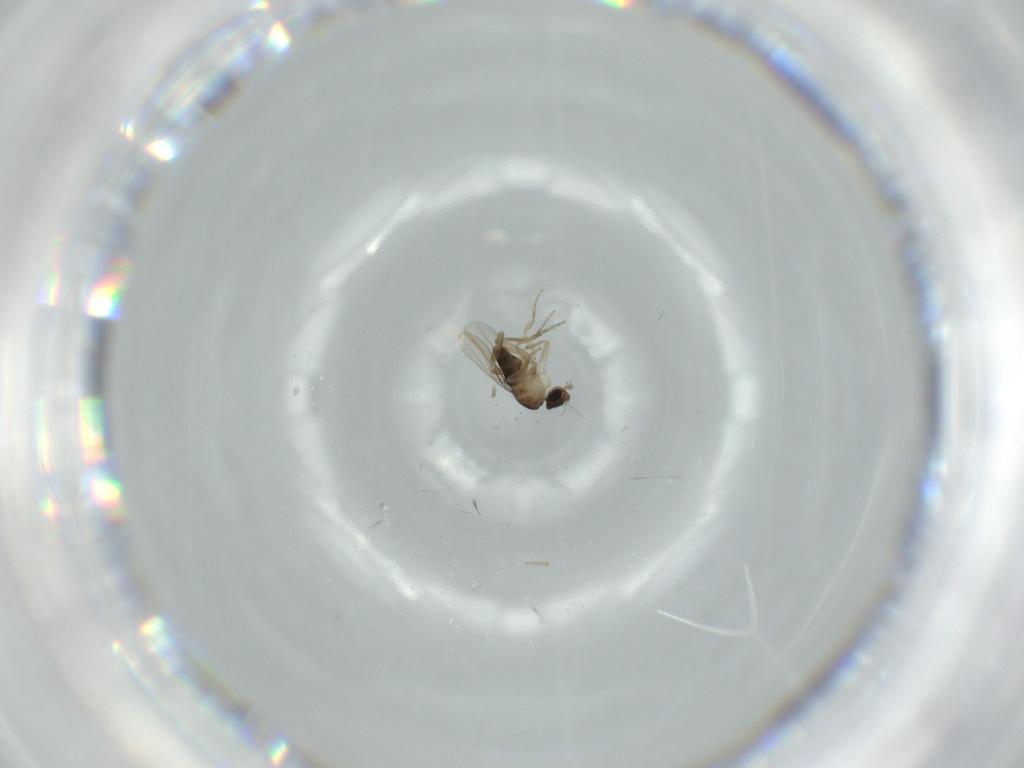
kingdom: Animalia
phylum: Arthropoda
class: Insecta
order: Diptera
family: Phoridae
